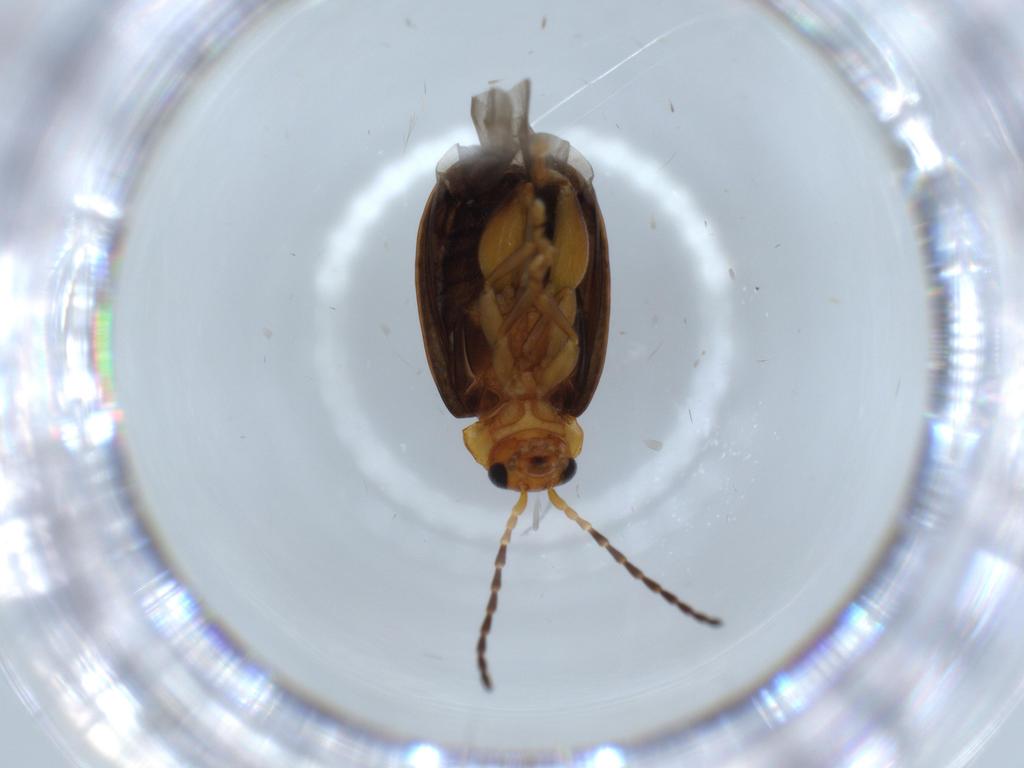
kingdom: Animalia
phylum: Arthropoda
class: Insecta
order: Coleoptera
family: Chrysomelidae
